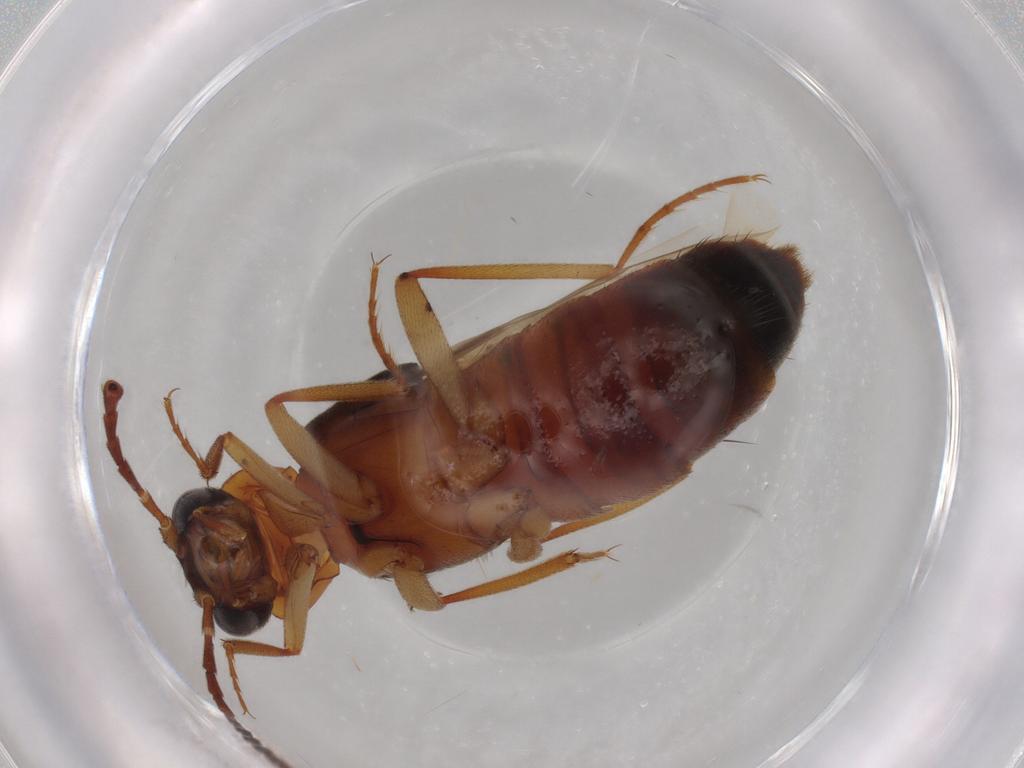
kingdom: Animalia
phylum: Arthropoda
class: Insecta
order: Coleoptera
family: Staphylinidae
